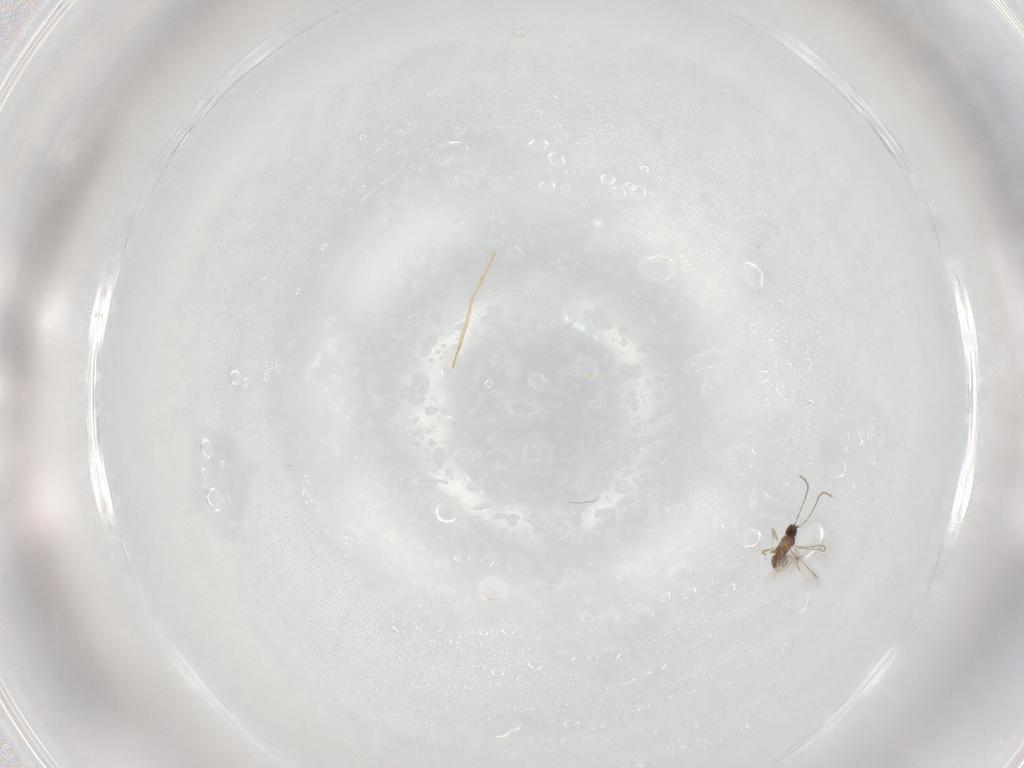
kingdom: Animalia
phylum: Arthropoda
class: Insecta
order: Hymenoptera
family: Mymaridae
